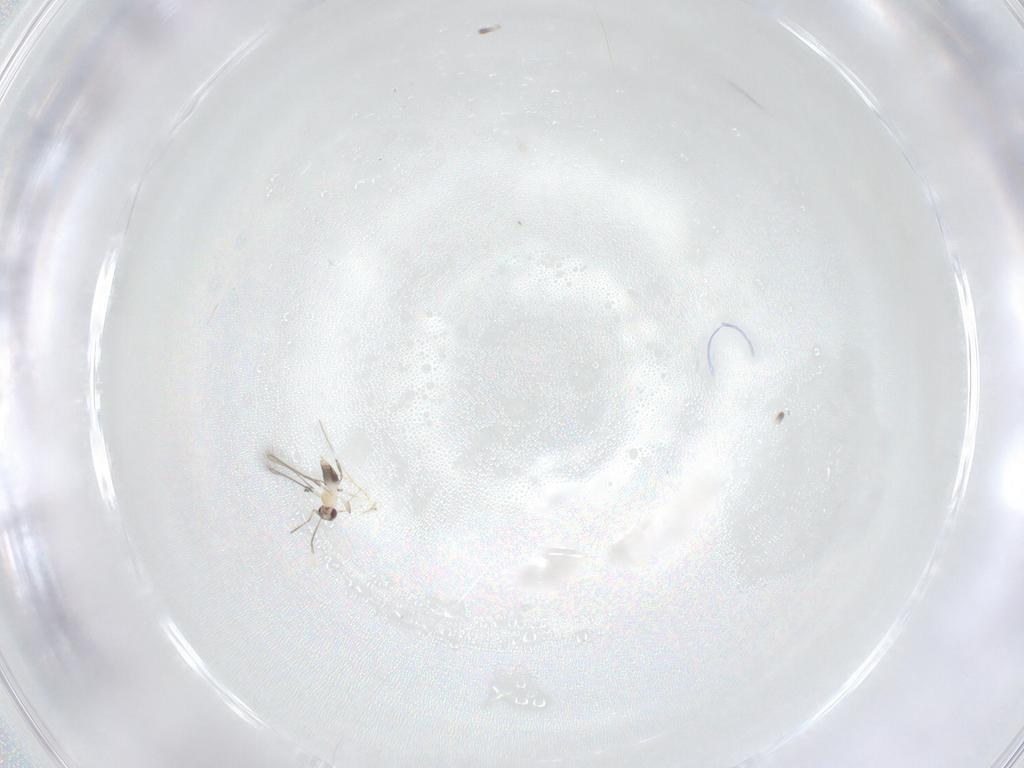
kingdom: Animalia
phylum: Arthropoda
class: Insecta
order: Hymenoptera
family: Mymaridae
